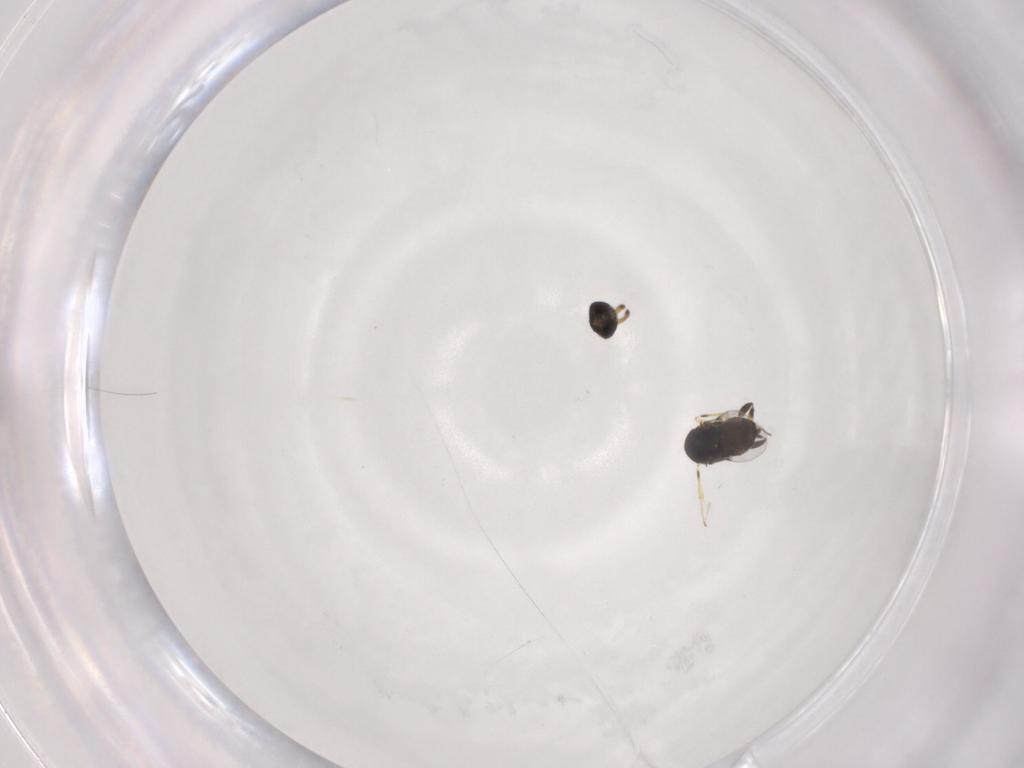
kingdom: Animalia
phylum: Arthropoda
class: Insecta
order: Hymenoptera
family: Encyrtidae
